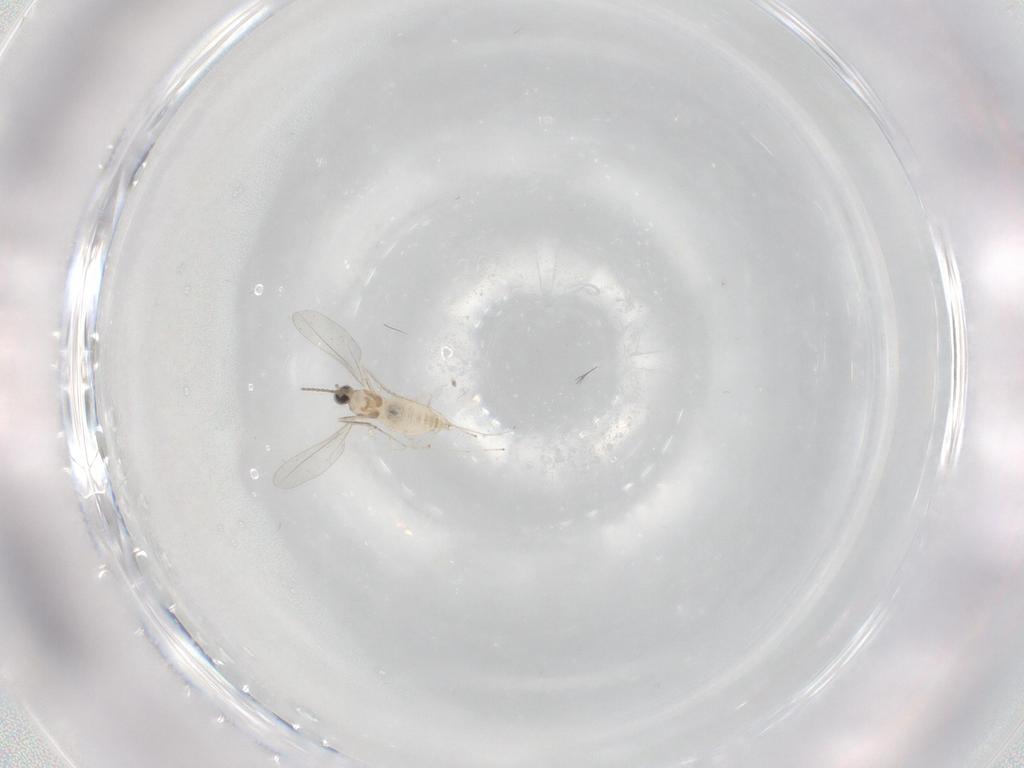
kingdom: Animalia
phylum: Arthropoda
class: Insecta
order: Diptera
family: Cecidomyiidae
